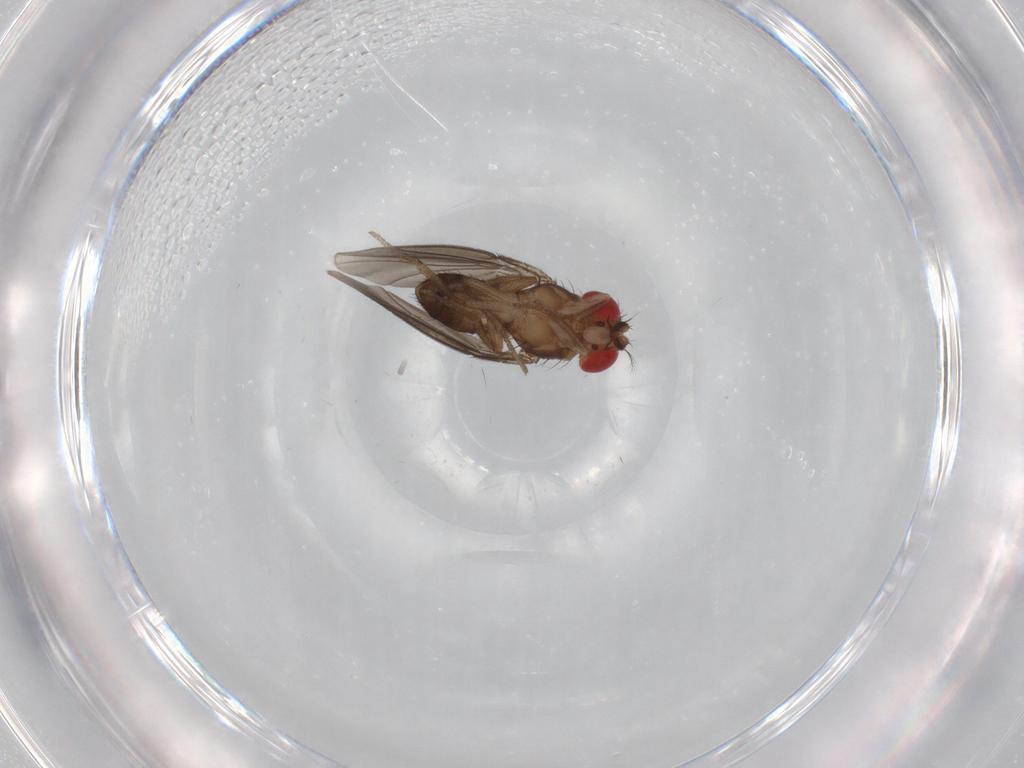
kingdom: Animalia
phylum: Arthropoda
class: Insecta
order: Diptera
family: Drosophilidae
